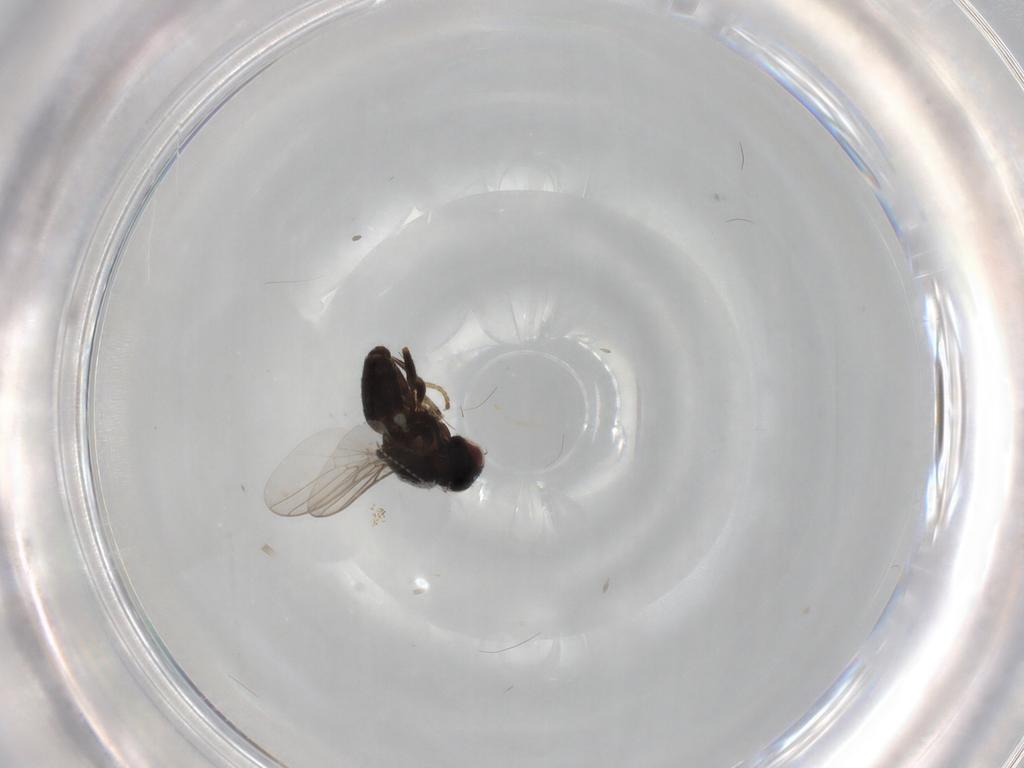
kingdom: Animalia
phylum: Arthropoda
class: Insecta
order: Diptera
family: Chloropidae
